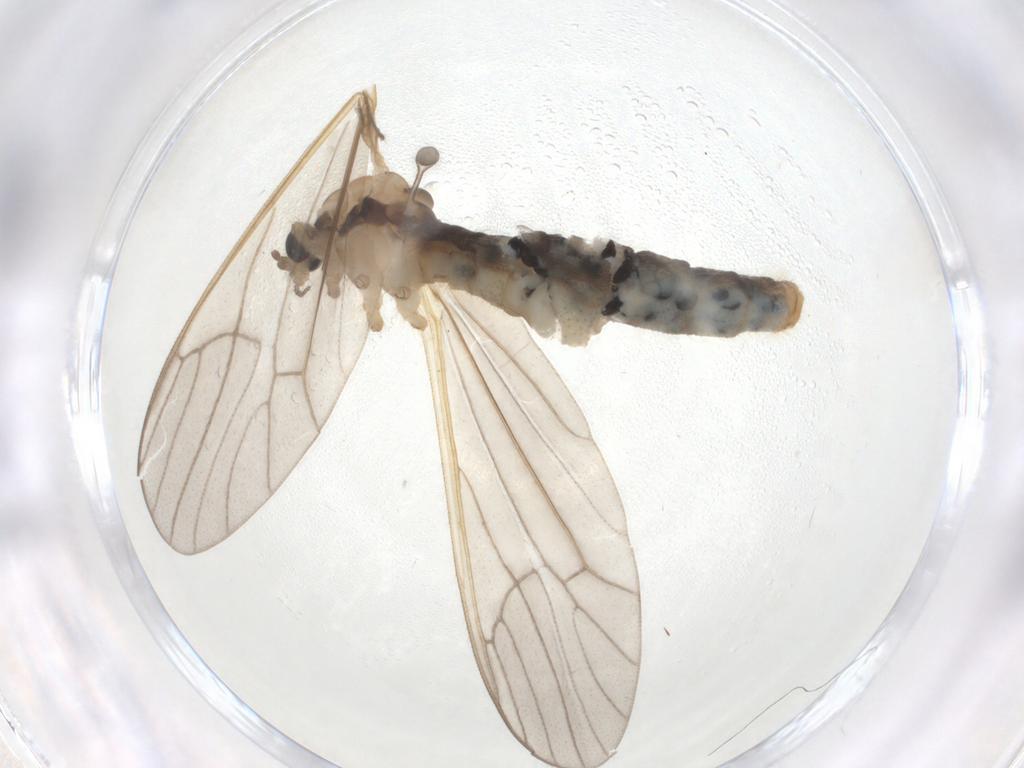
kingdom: Animalia
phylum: Arthropoda
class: Insecta
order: Diptera
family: Limoniidae
